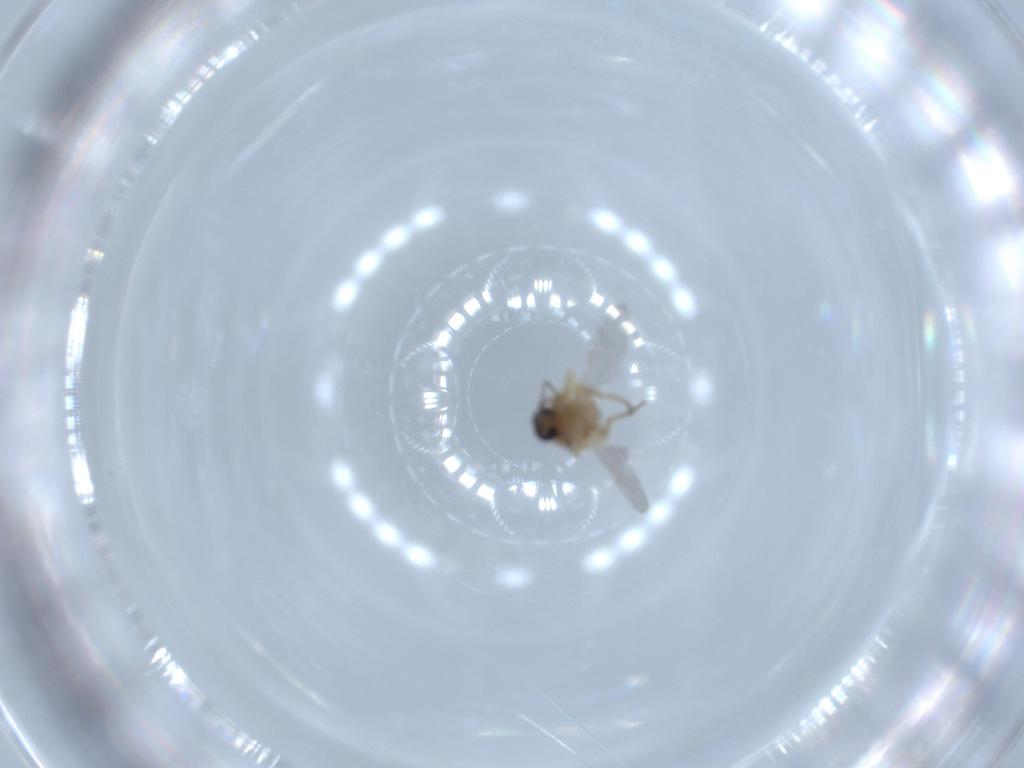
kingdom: Animalia
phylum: Arthropoda
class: Insecta
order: Diptera
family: Ceratopogonidae
